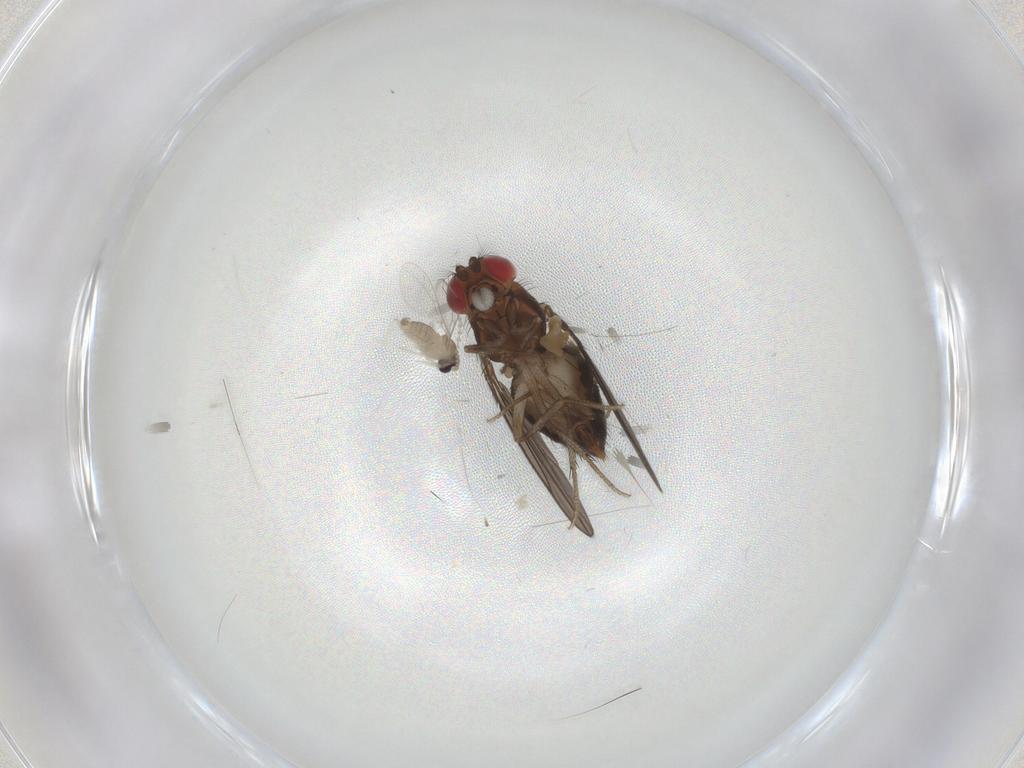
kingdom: Animalia
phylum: Arthropoda
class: Insecta
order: Diptera
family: Drosophilidae
